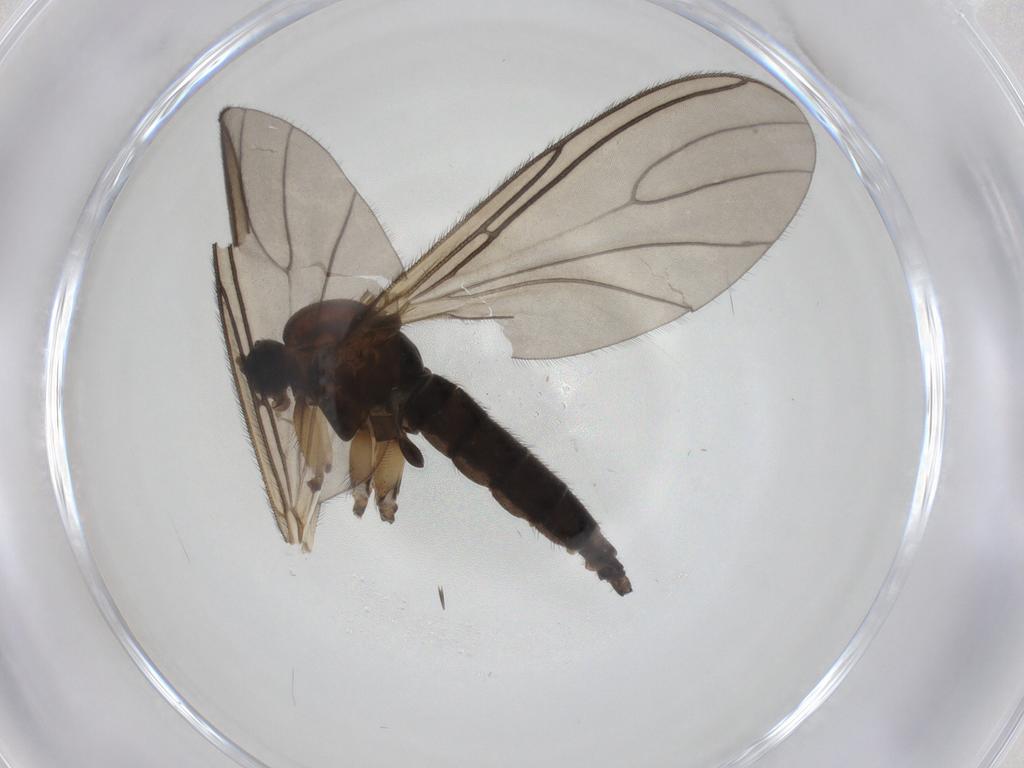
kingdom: Animalia
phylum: Arthropoda
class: Insecta
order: Diptera
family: Sciaridae
